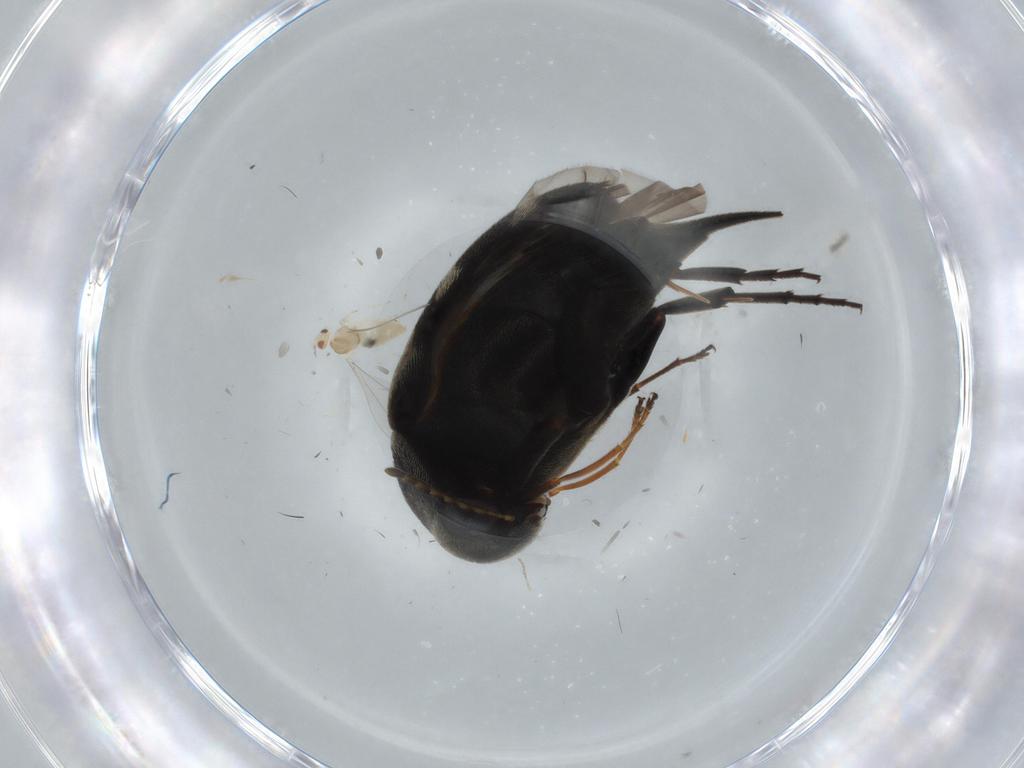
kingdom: Animalia
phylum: Arthropoda
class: Insecta
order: Diptera
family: Cecidomyiidae
